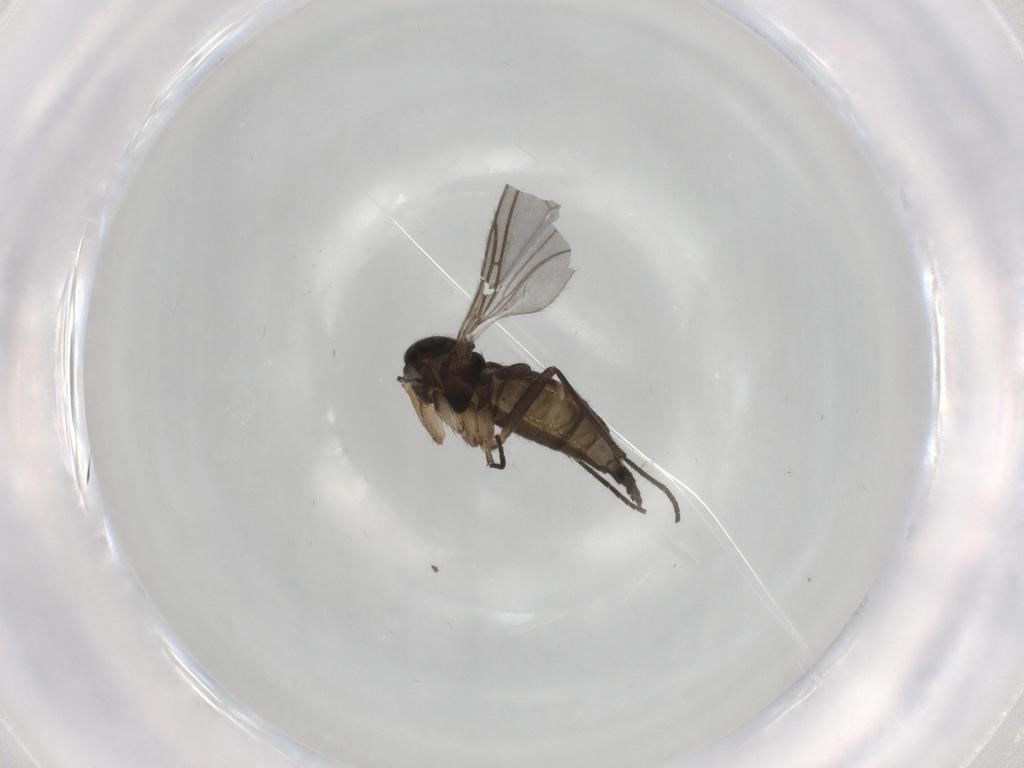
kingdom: Animalia
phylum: Arthropoda
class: Insecta
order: Diptera
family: Sciaridae
